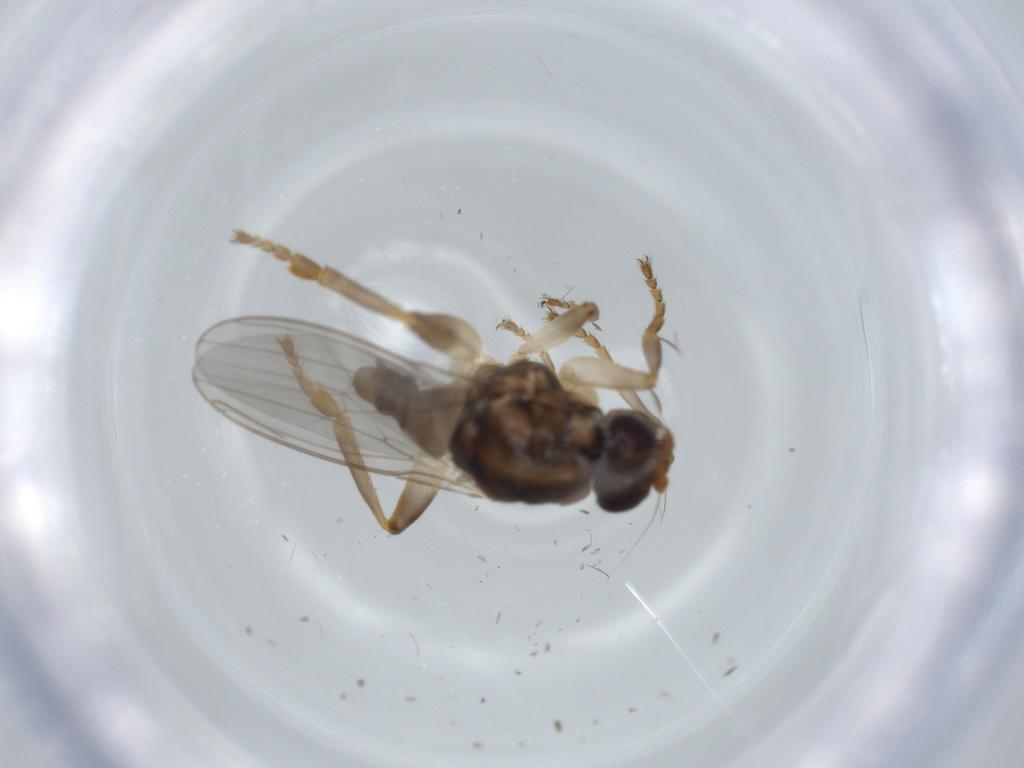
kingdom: Animalia
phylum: Arthropoda
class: Insecta
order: Diptera
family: Sphaeroceridae
